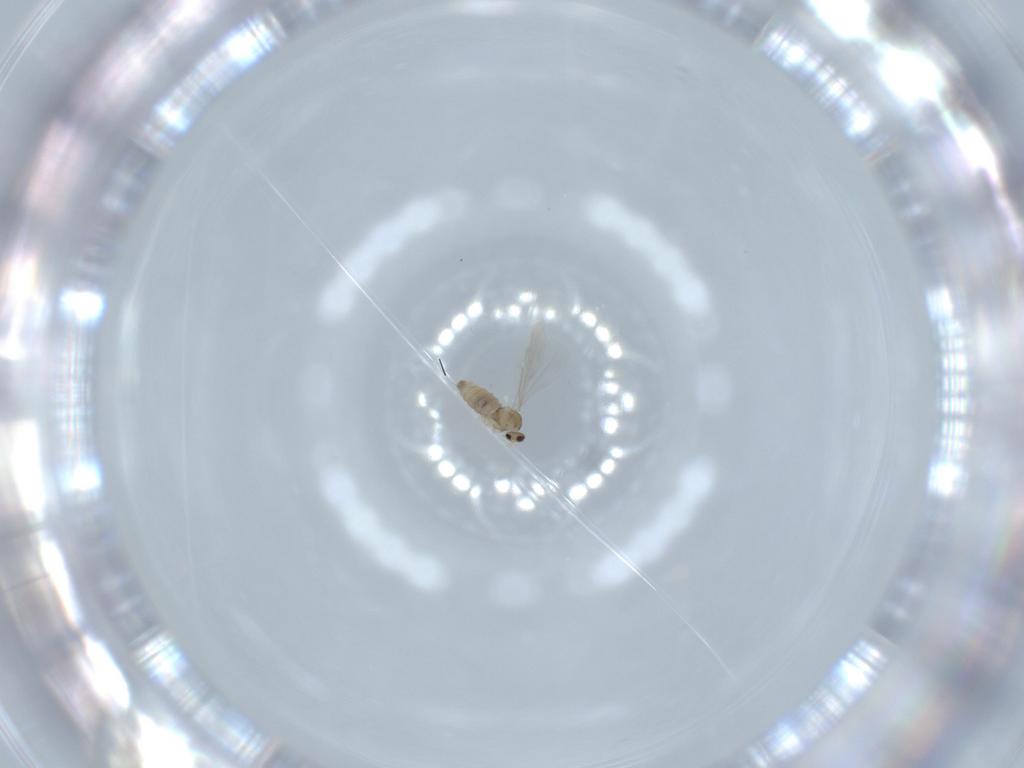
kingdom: Animalia
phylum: Arthropoda
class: Insecta
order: Diptera
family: Cecidomyiidae
